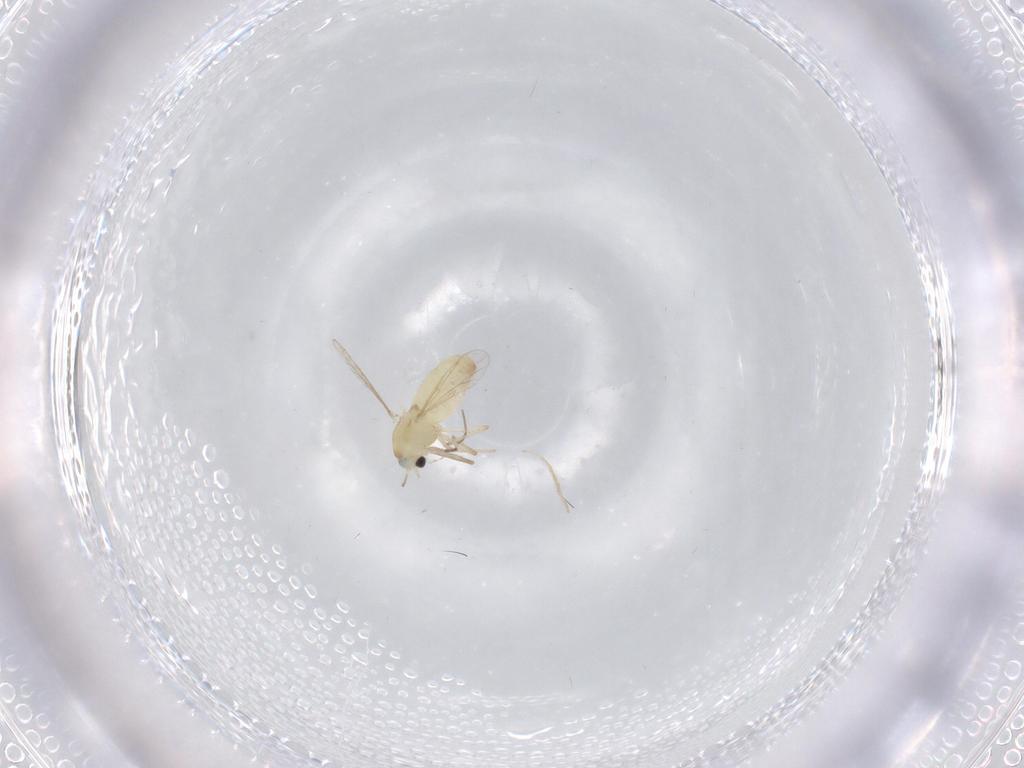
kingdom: Animalia
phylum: Arthropoda
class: Insecta
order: Diptera
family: Chironomidae
